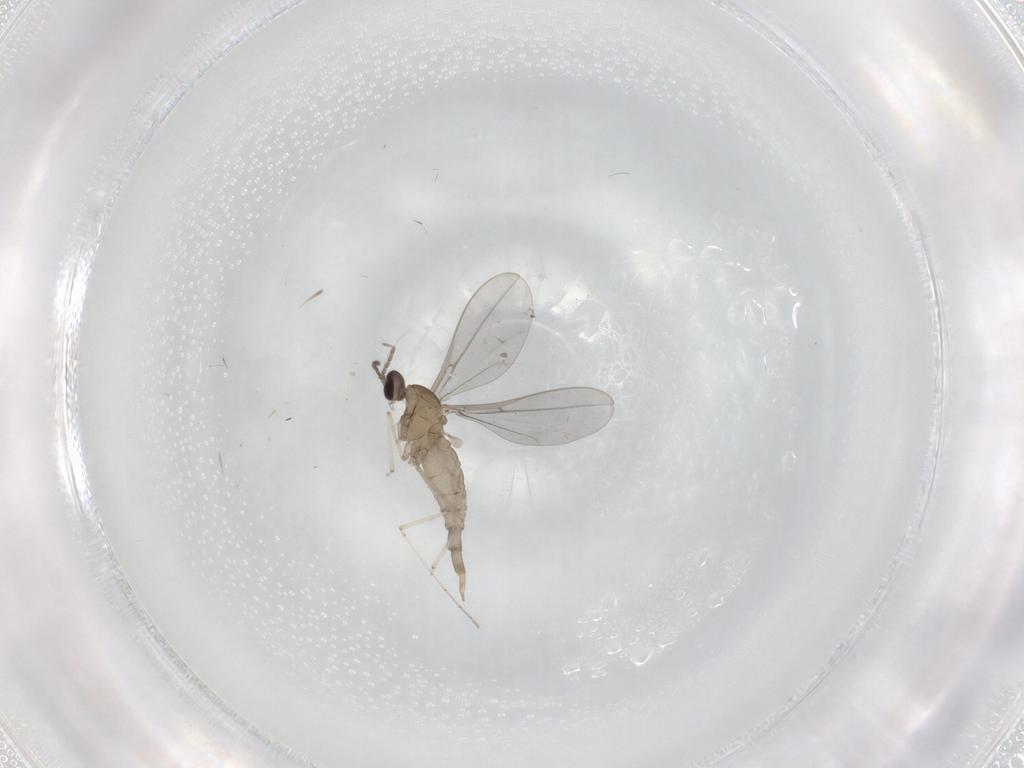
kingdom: Animalia
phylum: Arthropoda
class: Insecta
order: Diptera
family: Cecidomyiidae
